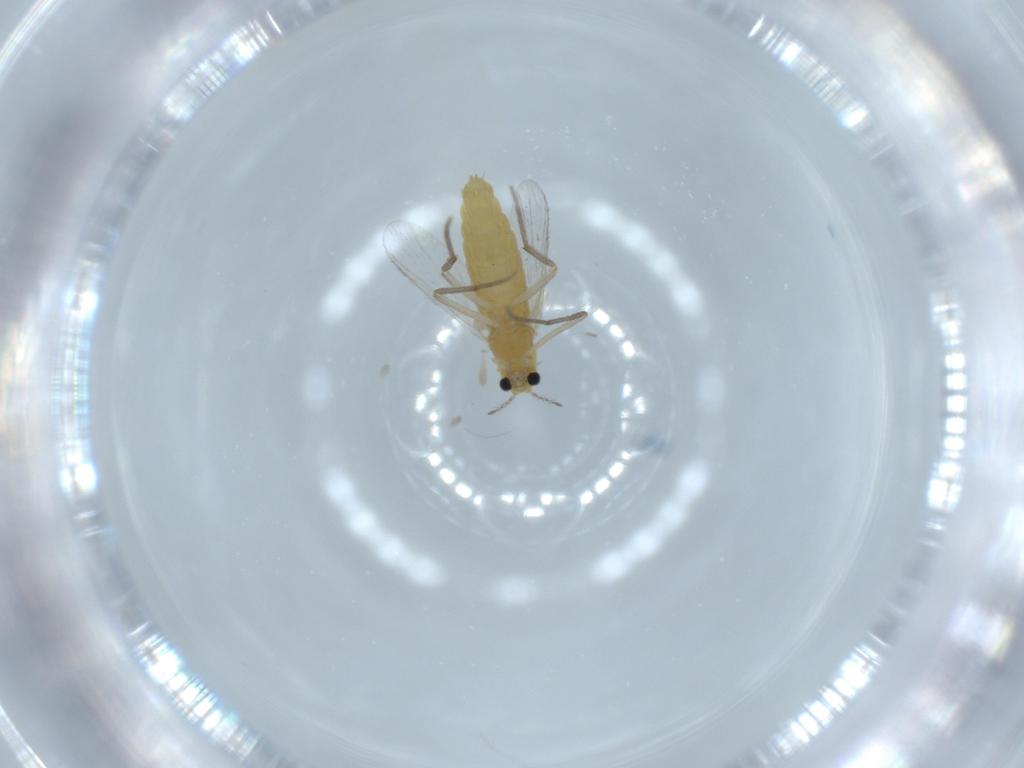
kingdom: Animalia
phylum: Arthropoda
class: Insecta
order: Diptera
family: Chironomidae
